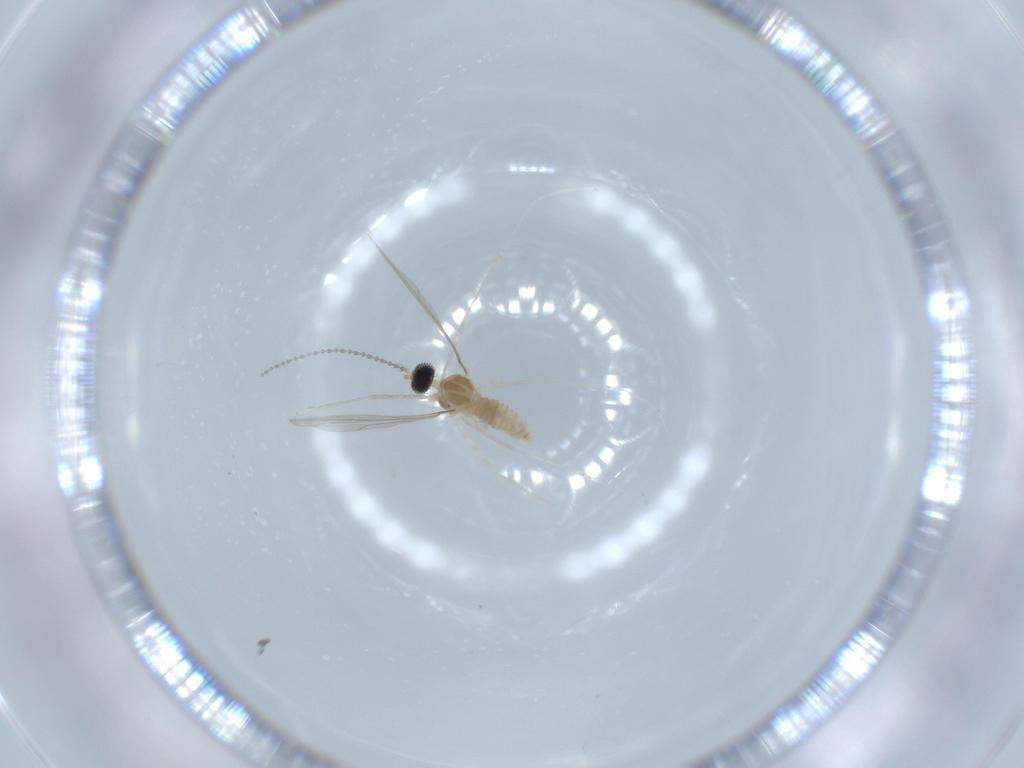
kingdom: Animalia
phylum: Arthropoda
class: Insecta
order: Diptera
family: Cecidomyiidae
